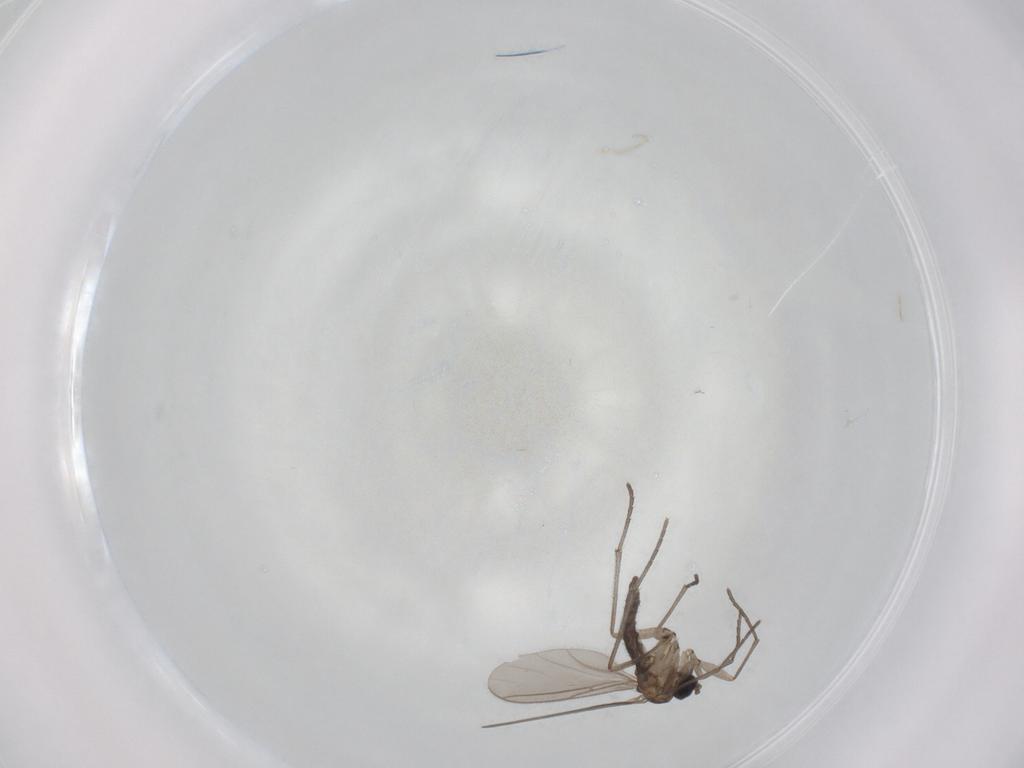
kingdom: Animalia
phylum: Arthropoda
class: Insecta
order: Diptera
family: Sciaridae
